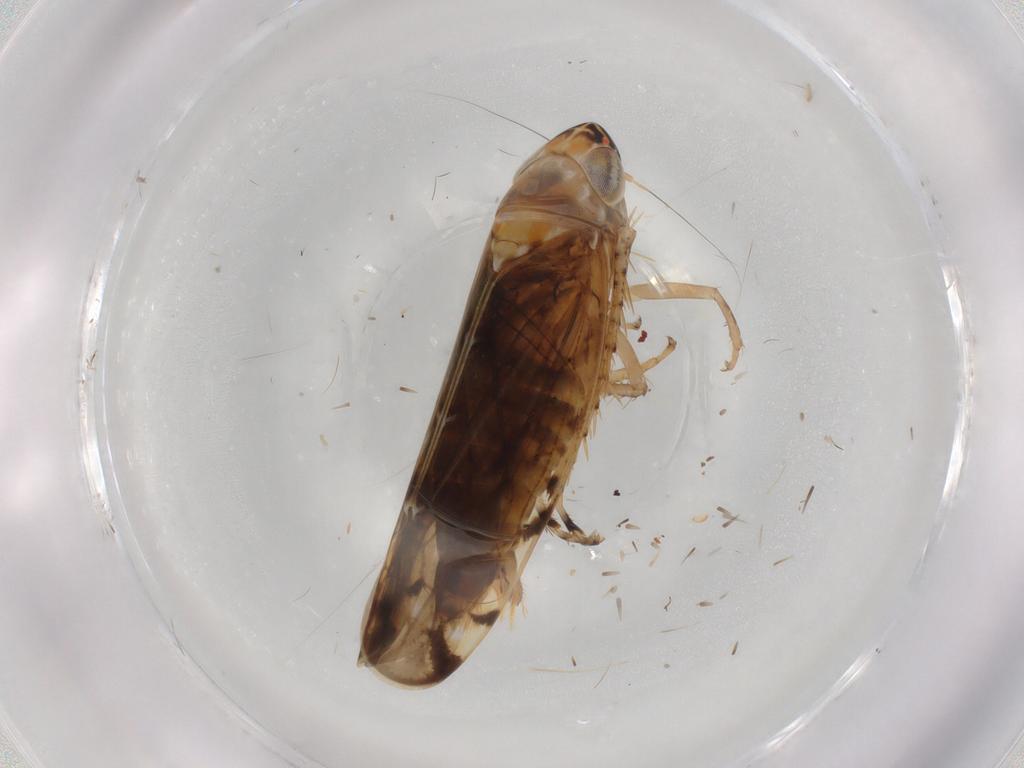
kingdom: Animalia
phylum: Arthropoda
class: Insecta
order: Hemiptera
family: Cicadellidae
